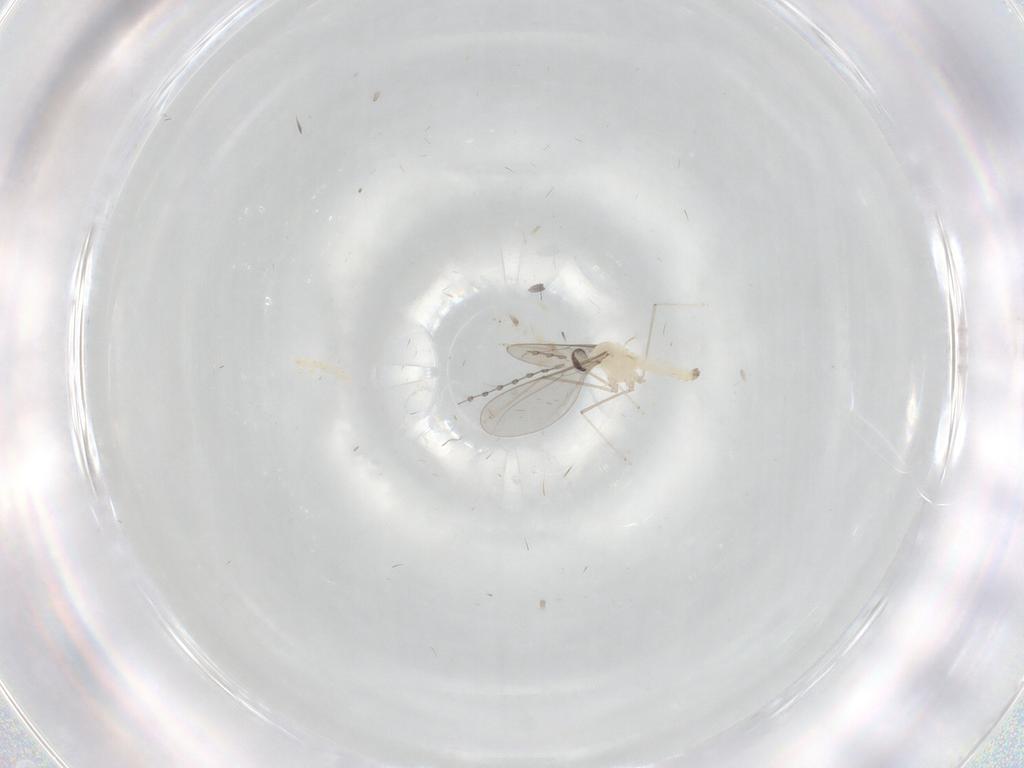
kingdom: Animalia
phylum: Arthropoda
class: Insecta
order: Diptera
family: Cecidomyiidae
